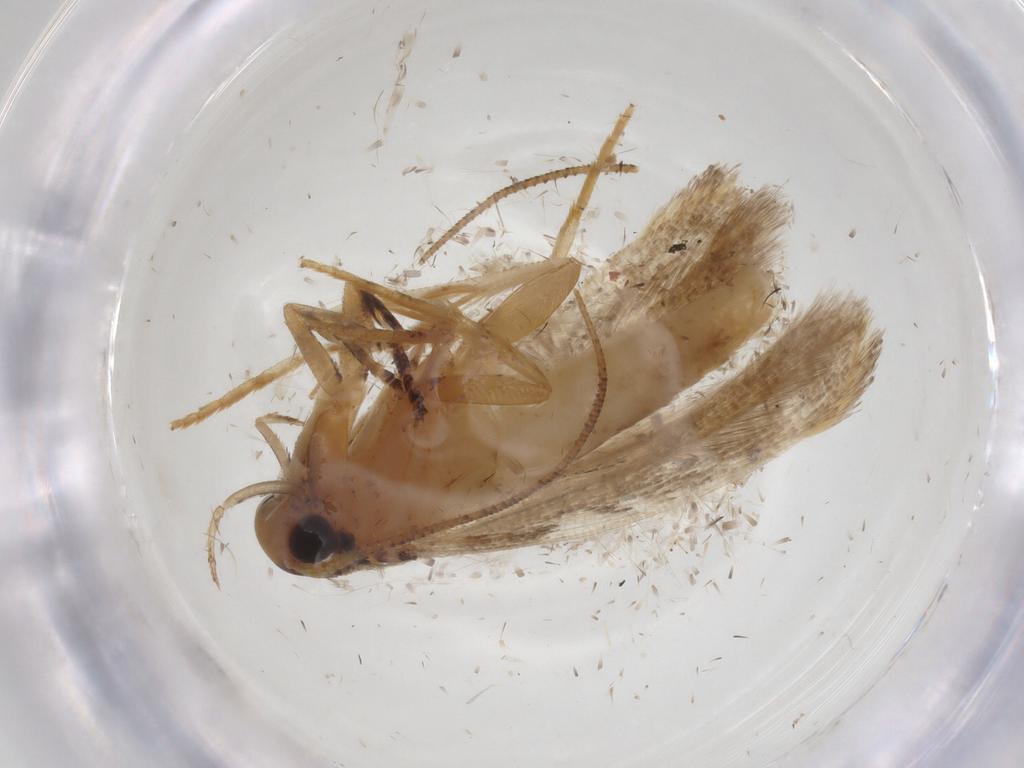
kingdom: Animalia
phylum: Arthropoda
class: Insecta
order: Lepidoptera
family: Gelechiidae
